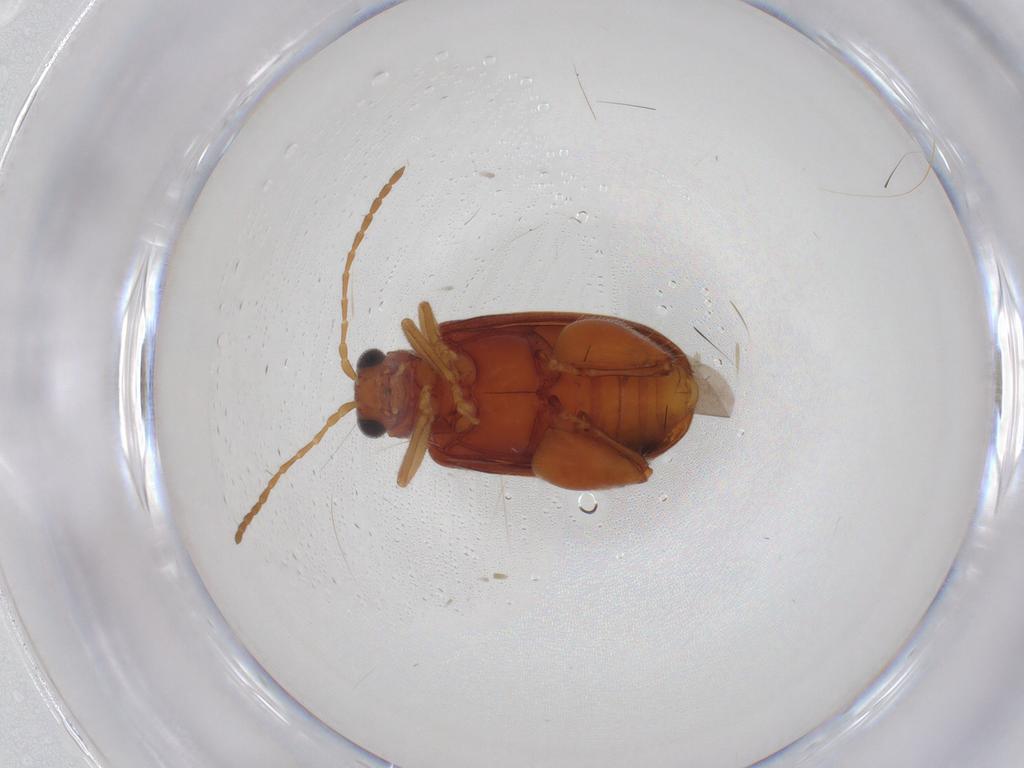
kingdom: Animalia
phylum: Arthropoda
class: Insecta
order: Coleoptera
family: Chrysomelidae
